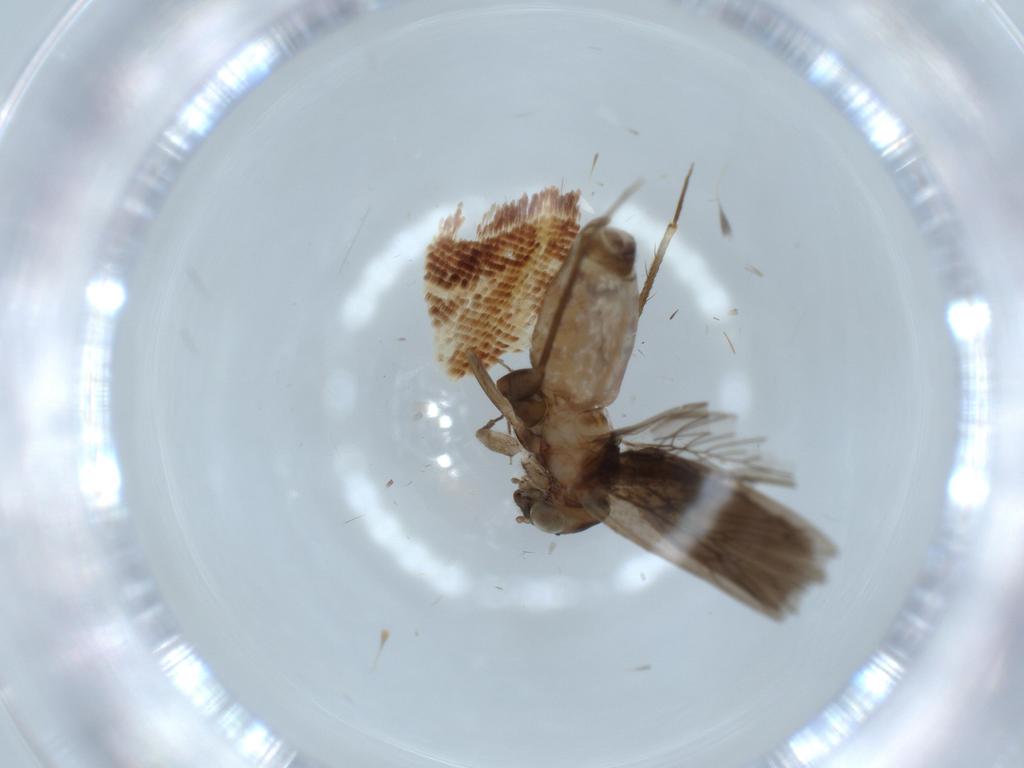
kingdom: Animalia
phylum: Arthropoda
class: Insecta
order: Psocodea
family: Liposcelididae
